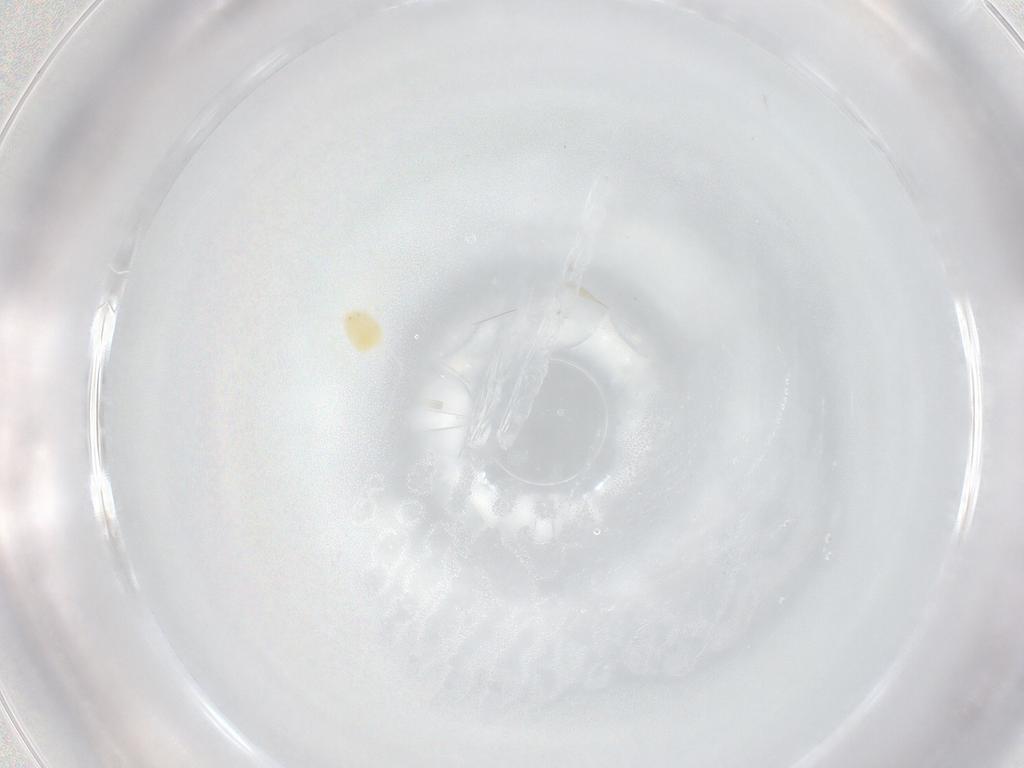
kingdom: Animalia
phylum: Arthropoda
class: Arachnida
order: Trombidiformes
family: Tetranychidae
